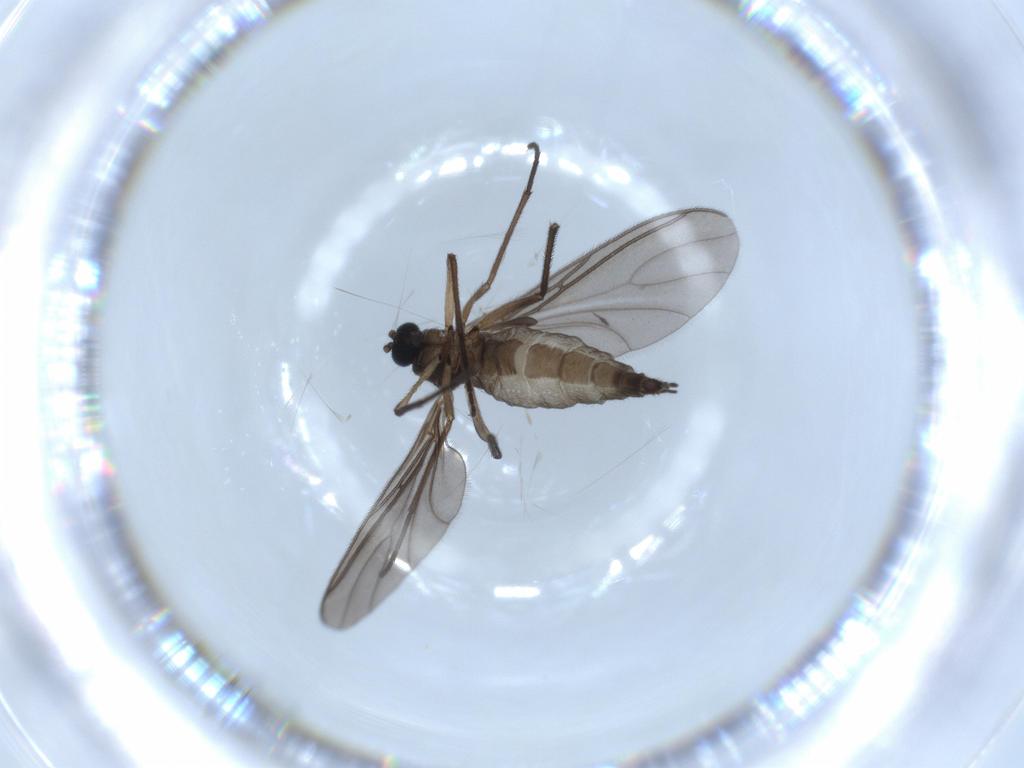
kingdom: Animalia
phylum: Arthropoda
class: Insecta
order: Diptera
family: Sciaridae
